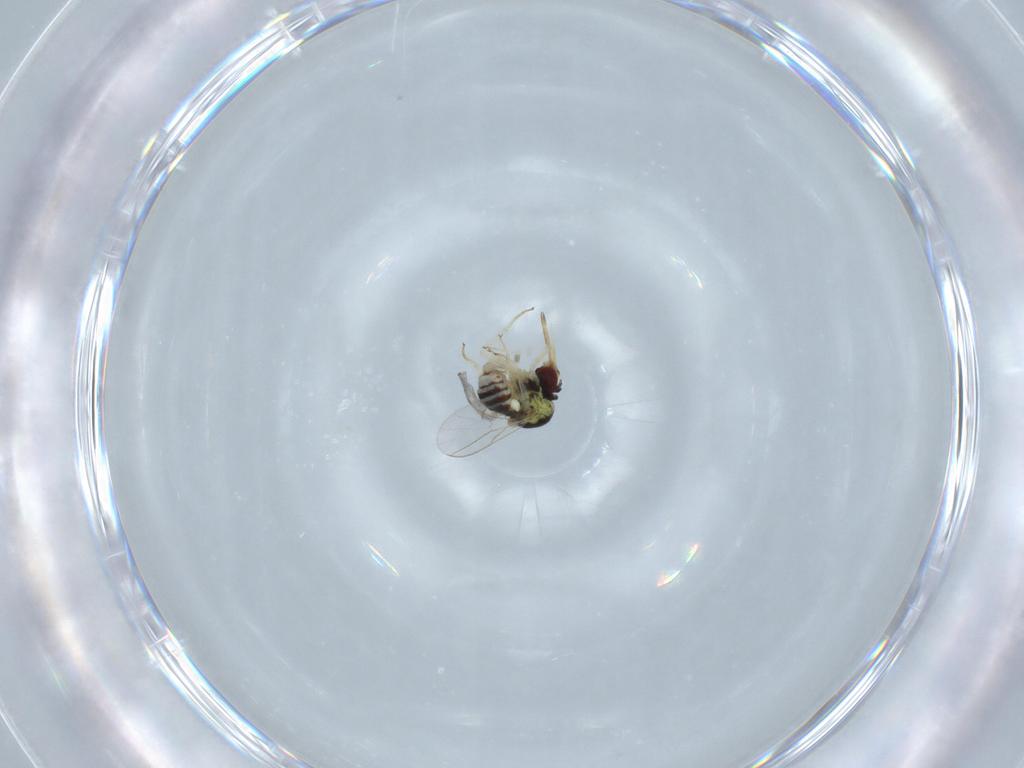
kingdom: Animalia
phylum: Arthropoda
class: Insecta
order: Diptera
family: Bombyliidae
